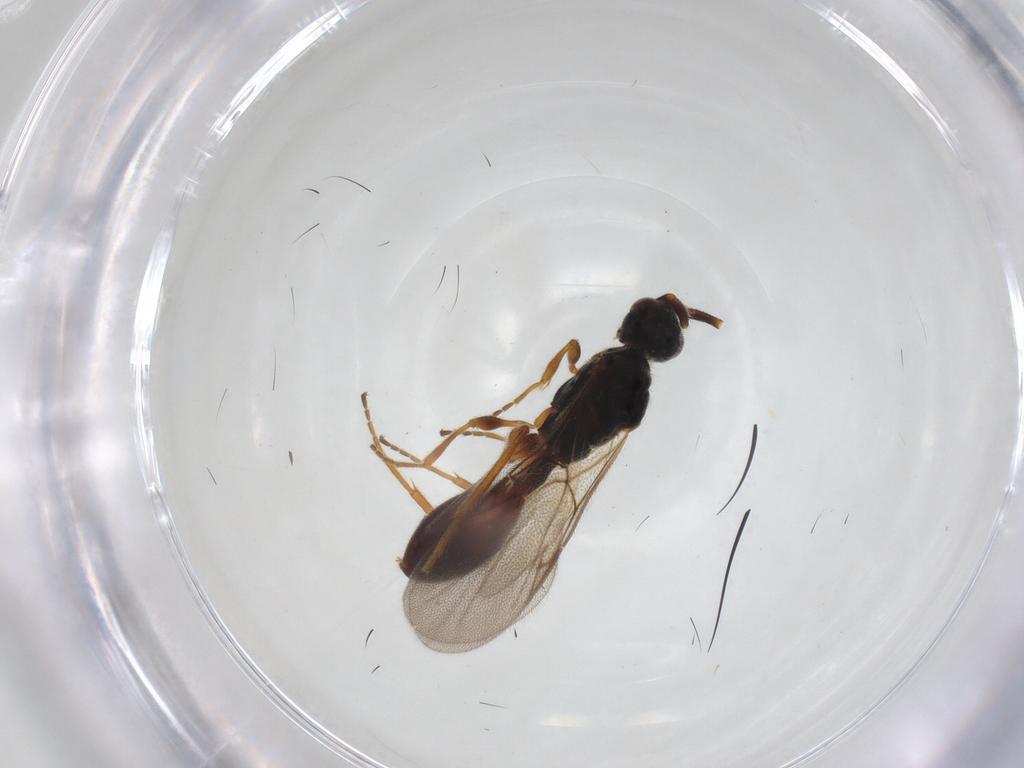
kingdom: Animalia
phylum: Arthropoda
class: Insecta
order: Hymenoptera
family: Diapriidae
